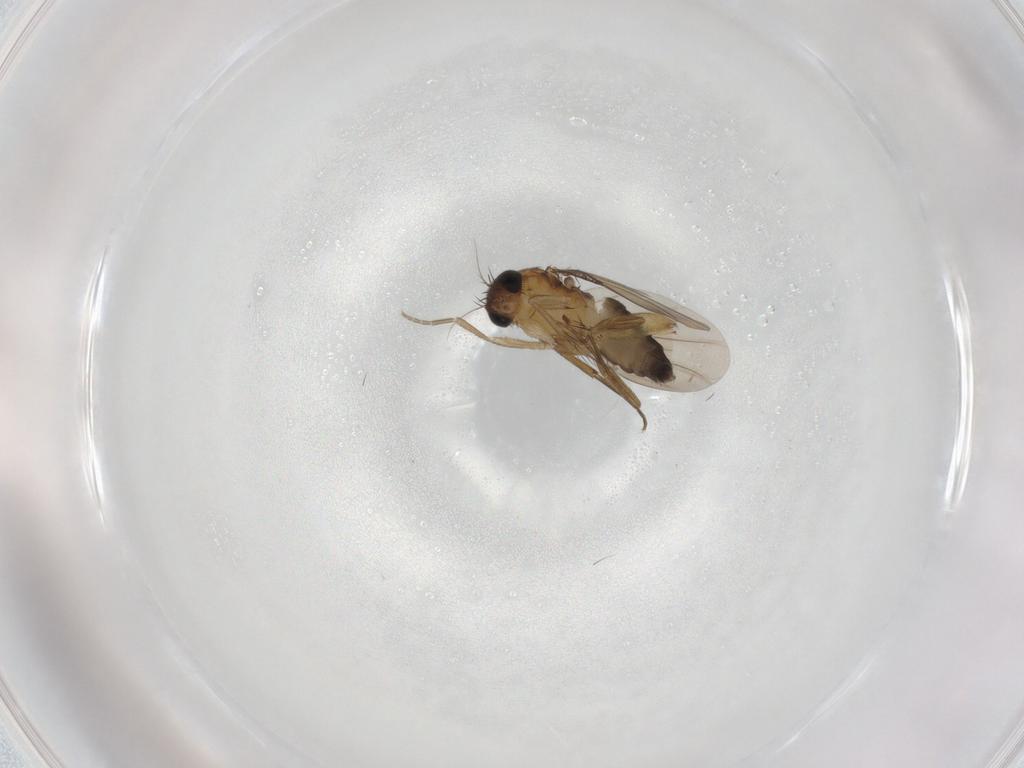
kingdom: Animalia
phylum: Arthropoda
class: Insecta
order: Diptera
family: Phoridae
